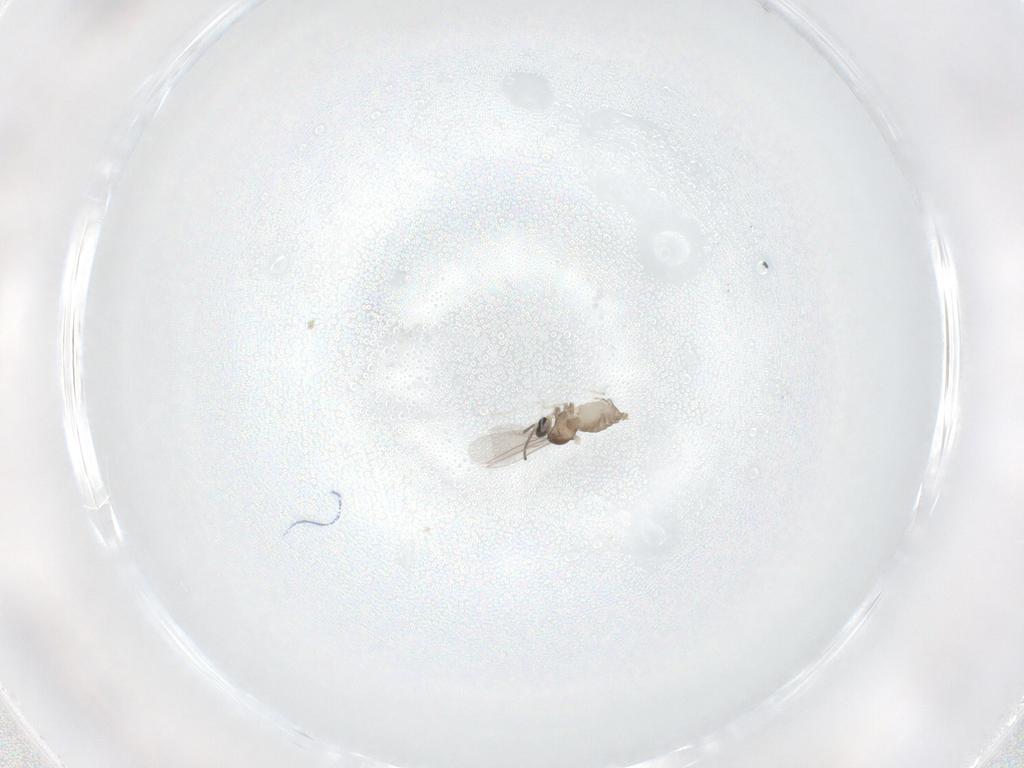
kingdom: Animalia
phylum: Arthropoda
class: Insecta
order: Diptera
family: Cecidomyiidae
